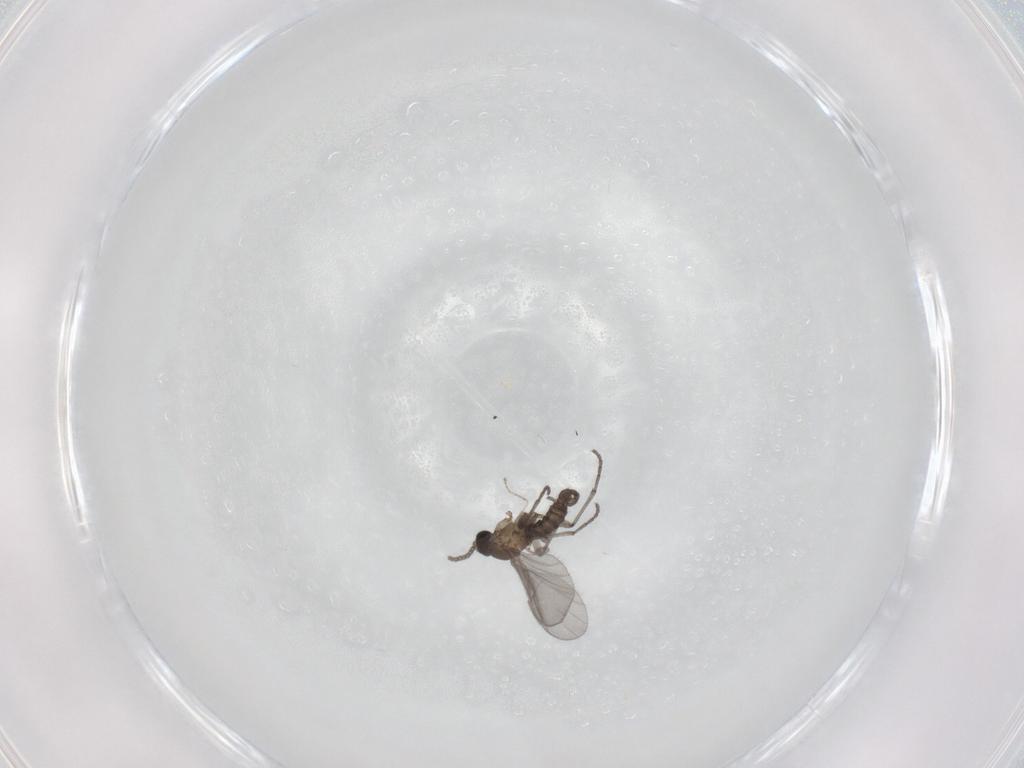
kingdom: Animalia
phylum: Arthropoda
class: Insecta
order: Diptera
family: Sciaridae
